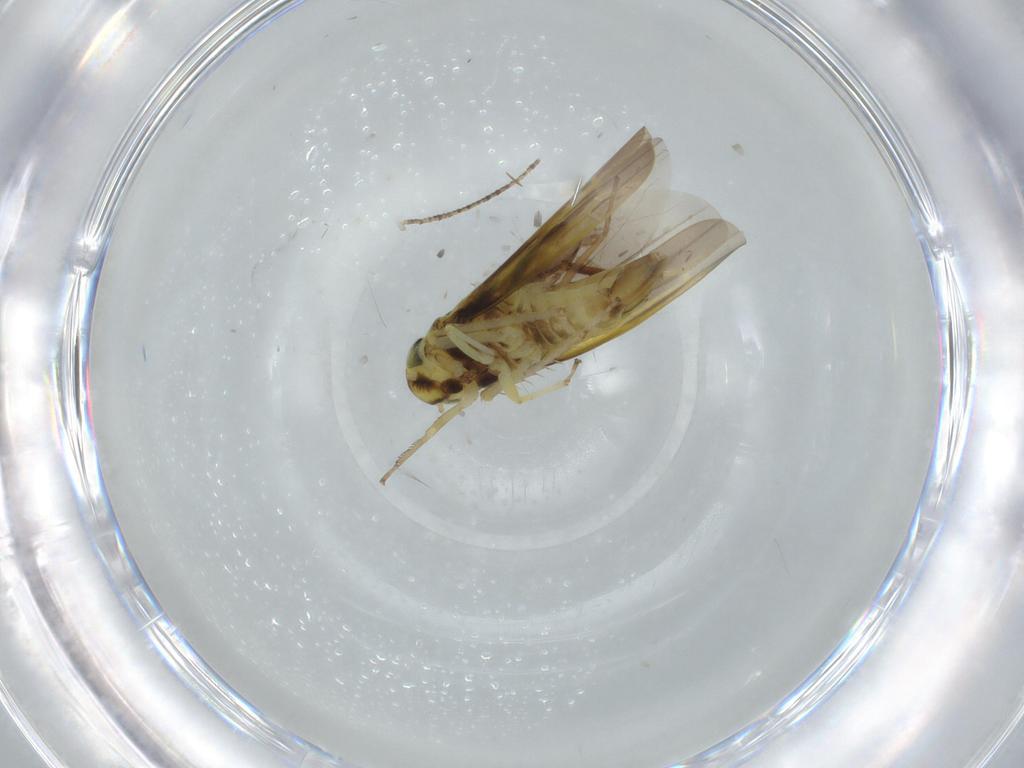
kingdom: Animalia
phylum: Arthropoda
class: Insecta
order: Hemiptera
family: Cicadellidae
